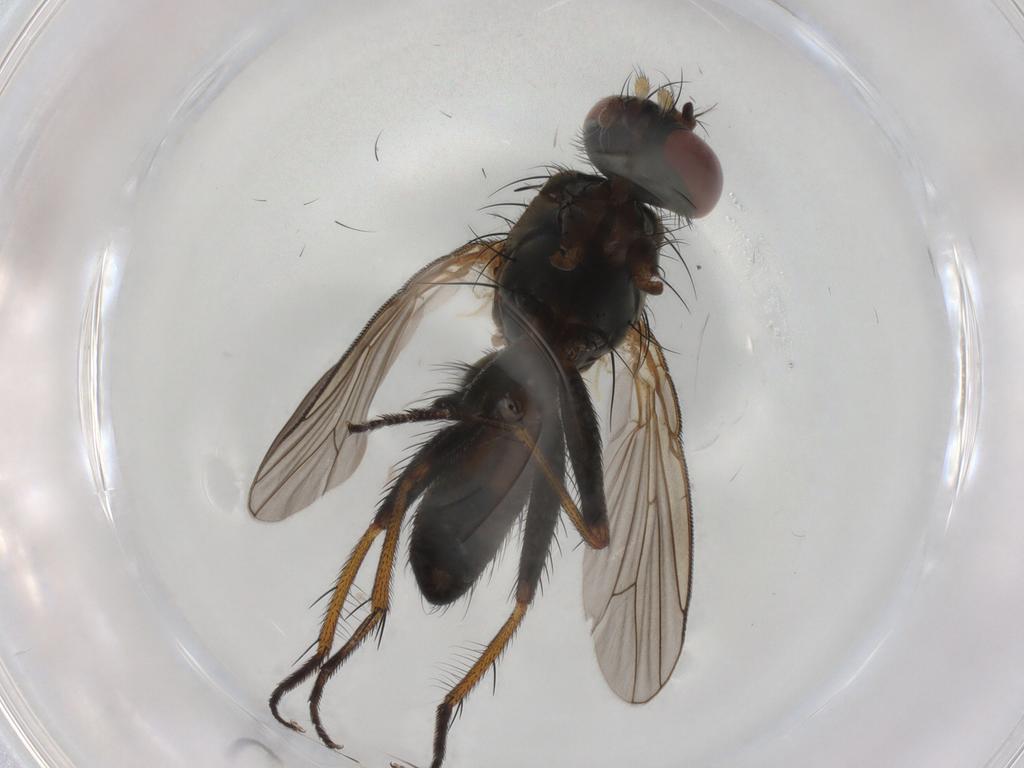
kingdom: Animalia
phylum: Arthropoda
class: Insecta
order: Diptera
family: Muscidae
